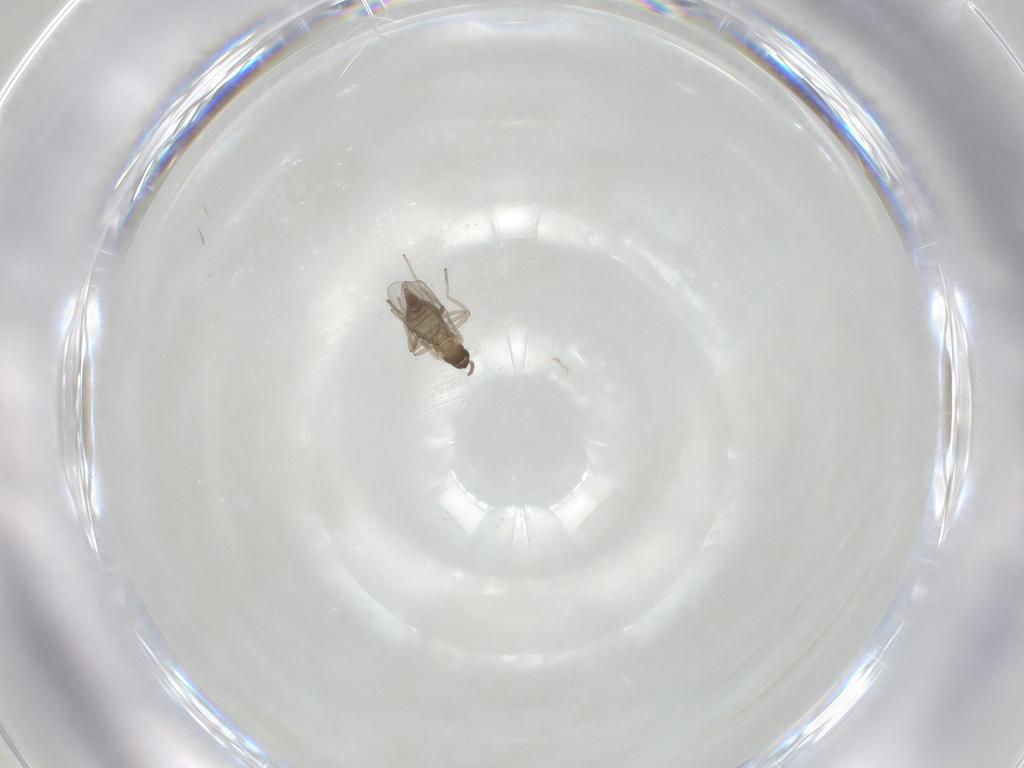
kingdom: Animalia
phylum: Arthropoda
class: Insecta
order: Diptera
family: Cecidomyiidae
